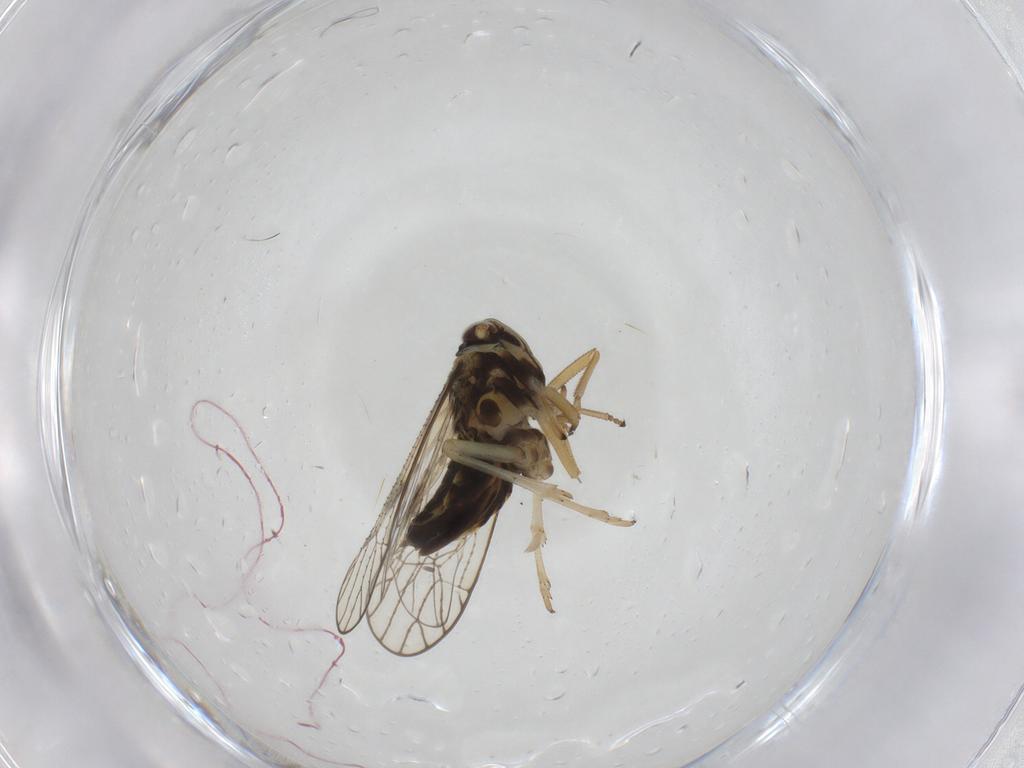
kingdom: Animalia
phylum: Arthropoda
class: Insecta
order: Hemiptera
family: Cicadellidae
